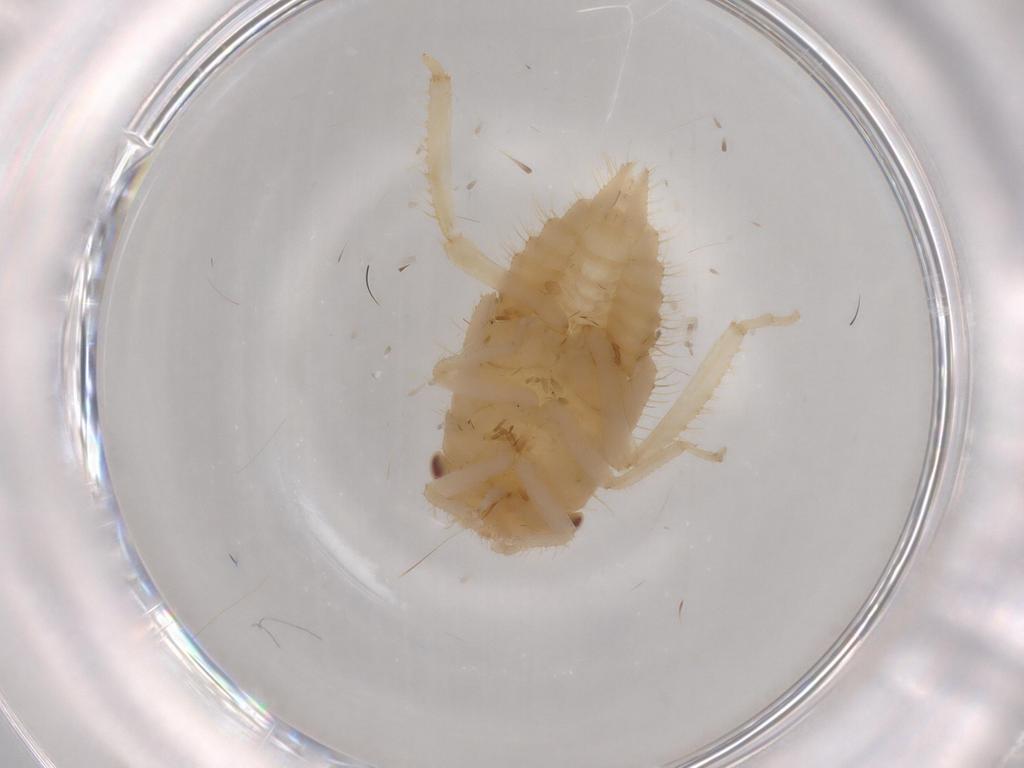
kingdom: Animalia
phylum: Arthropoda
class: Insecta
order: Hemiptera
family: Cicadellidae
